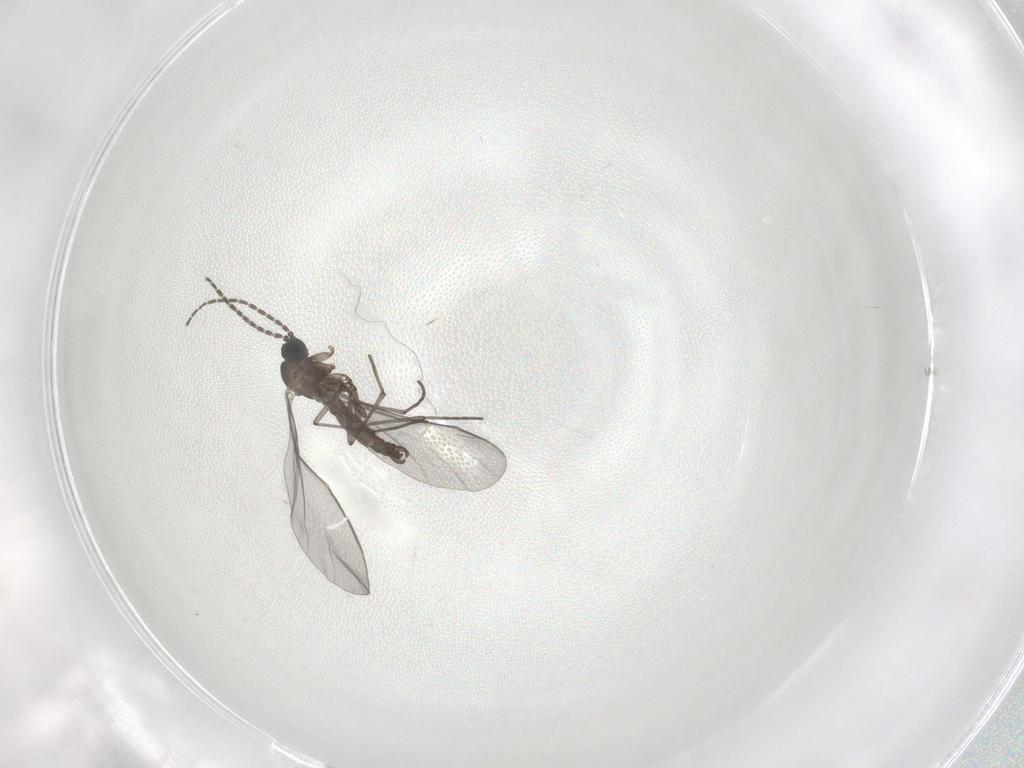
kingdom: Animalia
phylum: Arthropoda
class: Insecta
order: Diptera
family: Sciaridae
